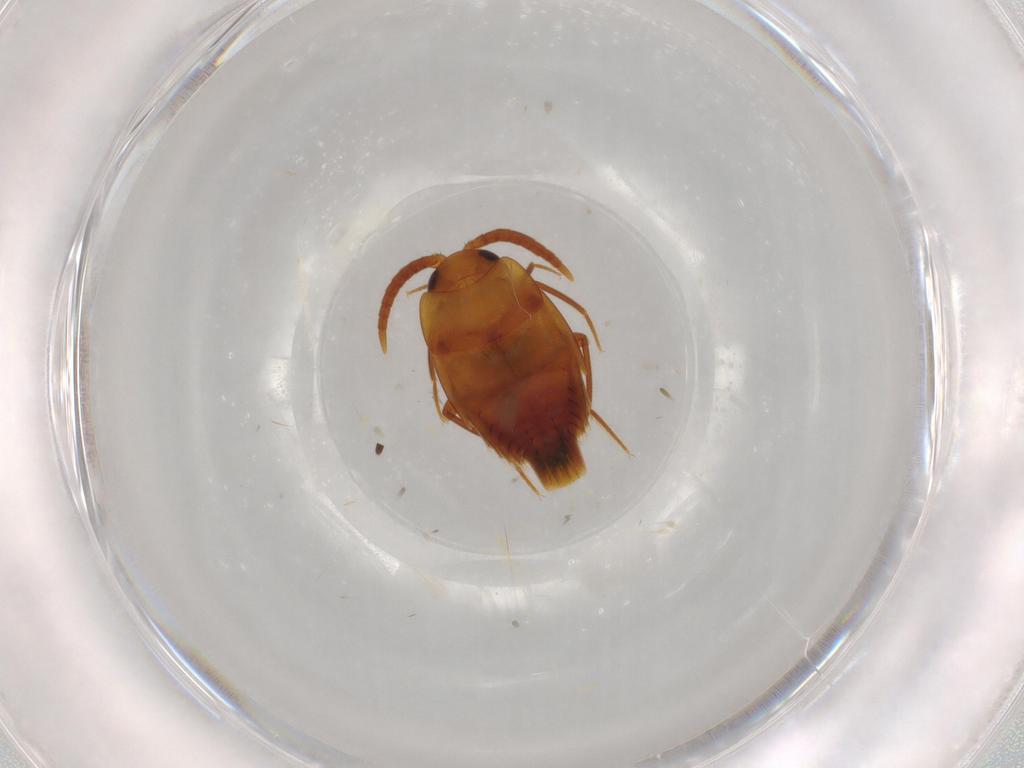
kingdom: Animalia
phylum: Arthropoda
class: Insecta
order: Coleoptera
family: Staphylinidae
